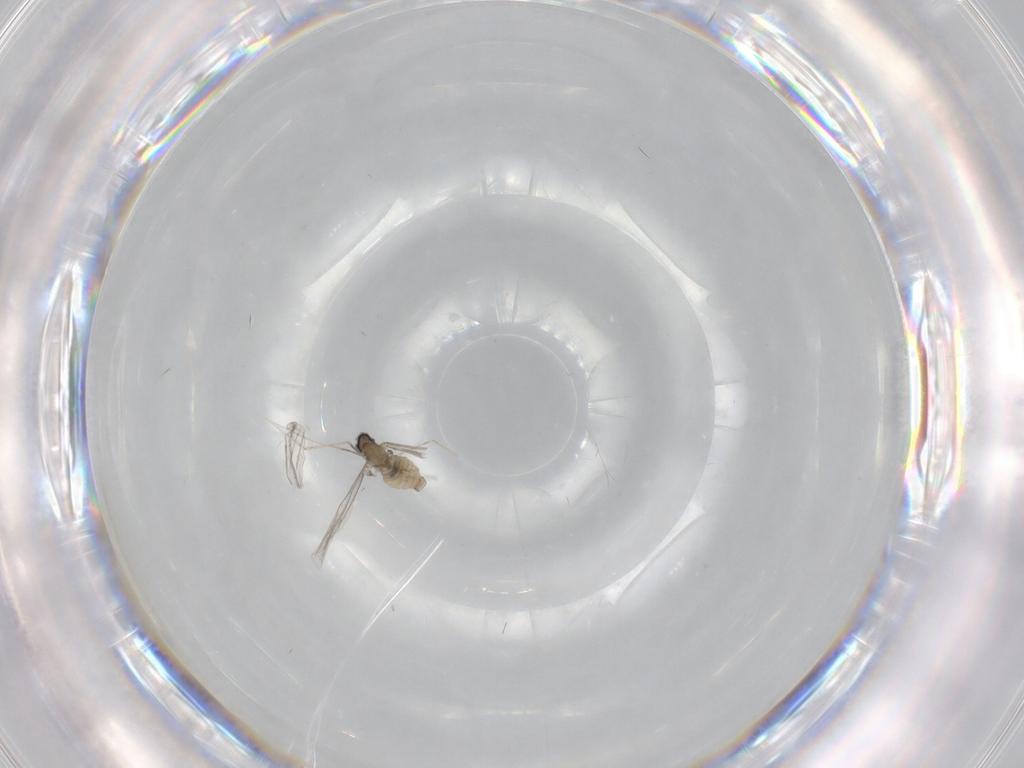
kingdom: Animalia
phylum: Arthropoda
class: Insecta
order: Diptera
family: Cecidomyiidae
